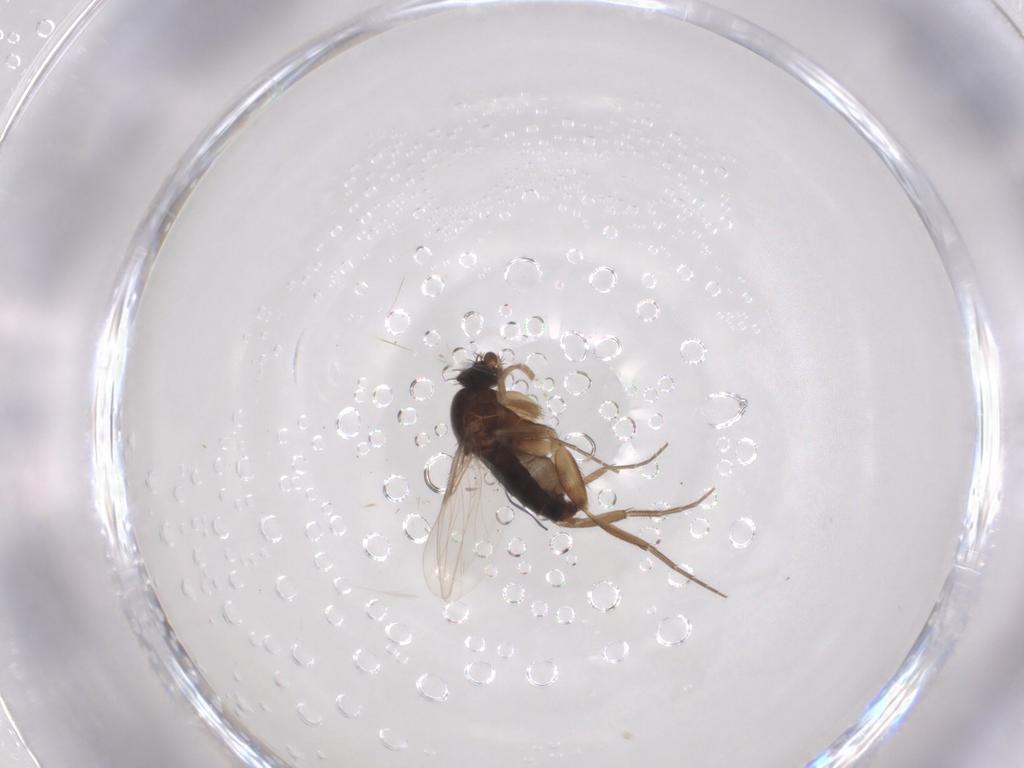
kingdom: Animalia
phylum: Arthropoda
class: Insecta
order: Diptera
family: Phoridae
